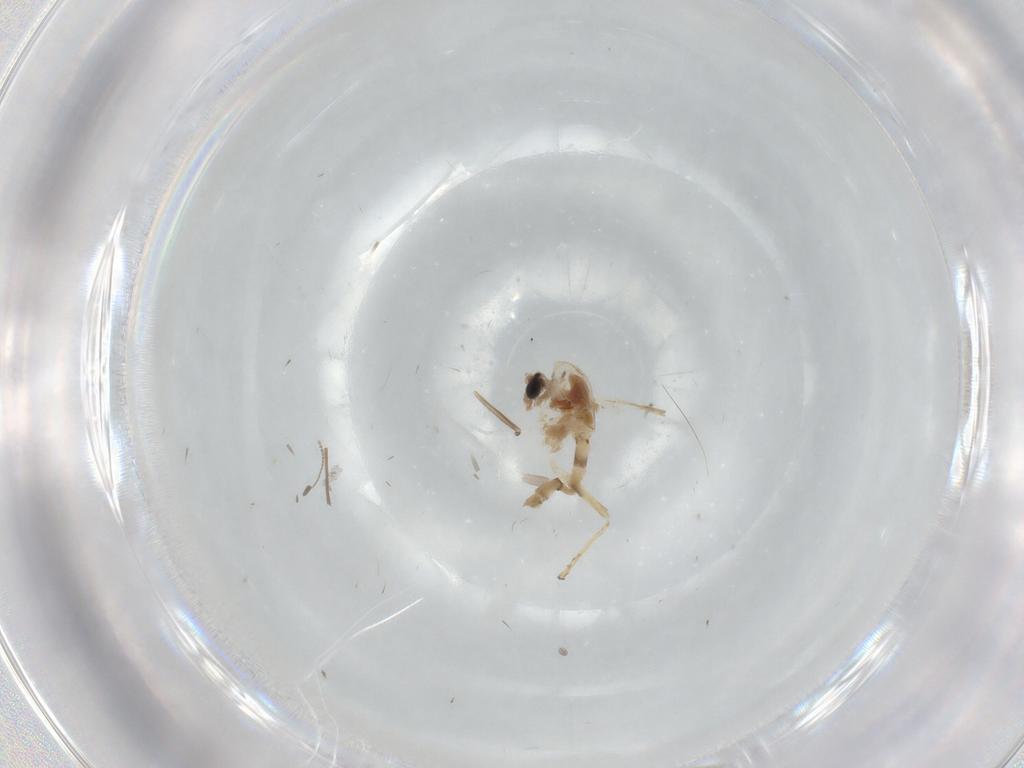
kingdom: Animalia
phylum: Arthropoda
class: Insecta
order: Diptera
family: Chironomidae
